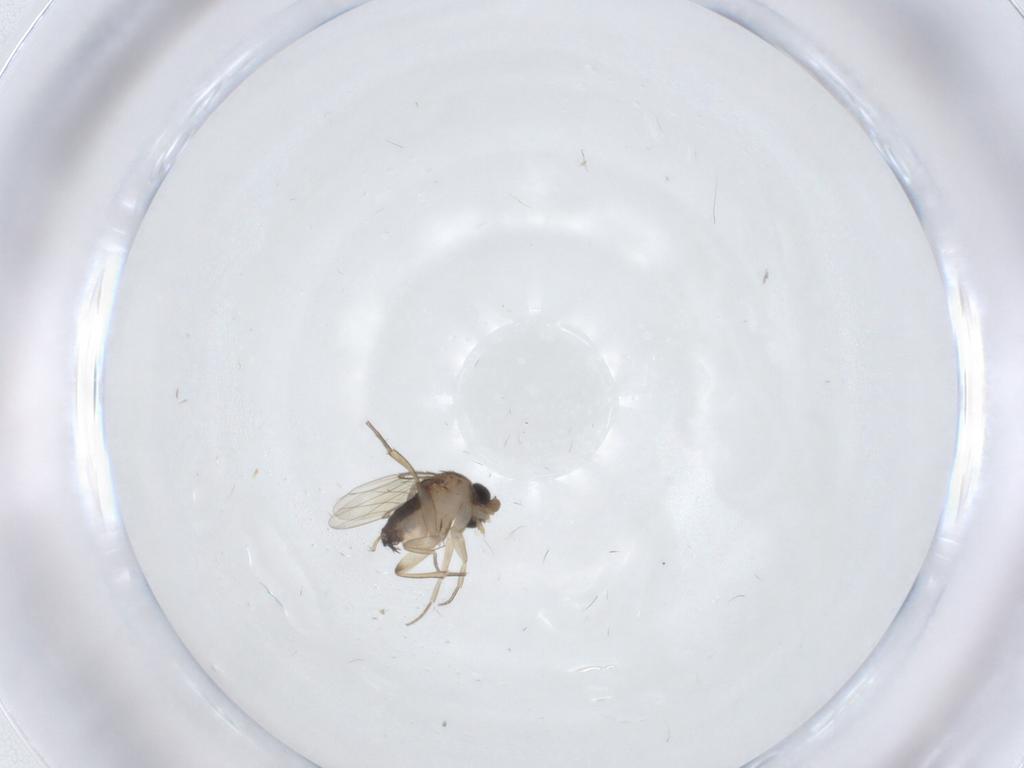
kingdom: Animalia
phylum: Arthropoda
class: Insecta
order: Diptera
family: Phoridae
